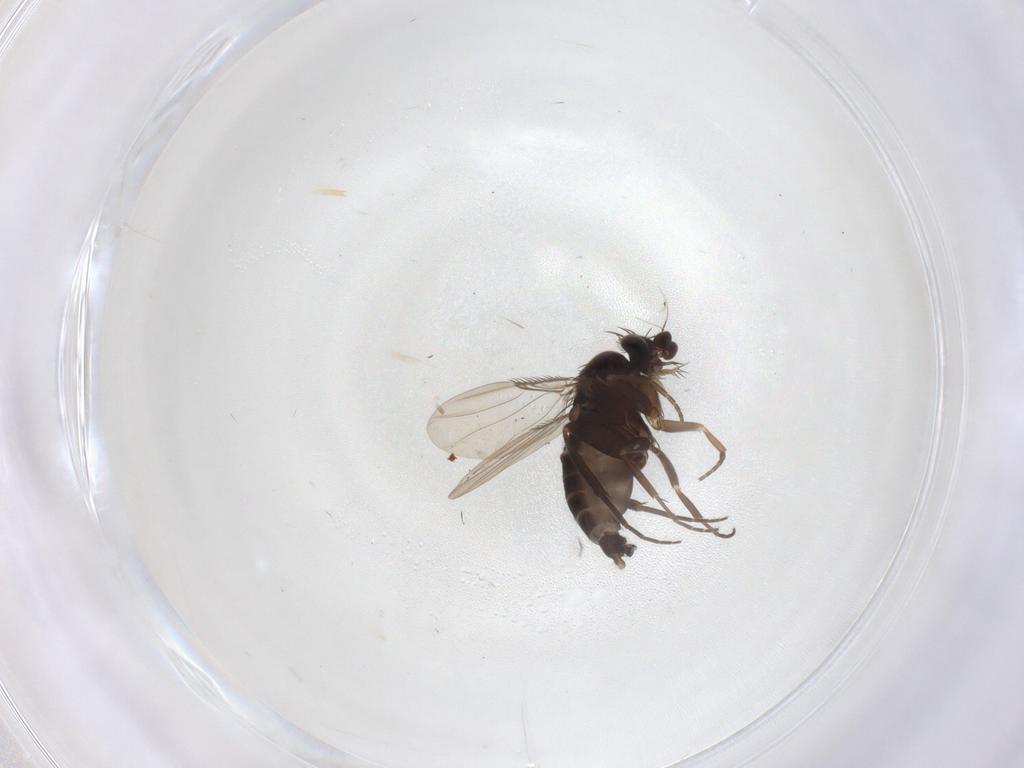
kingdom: Animalia
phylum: Arthropoda
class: Insecta
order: Diptera
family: Phoridae
